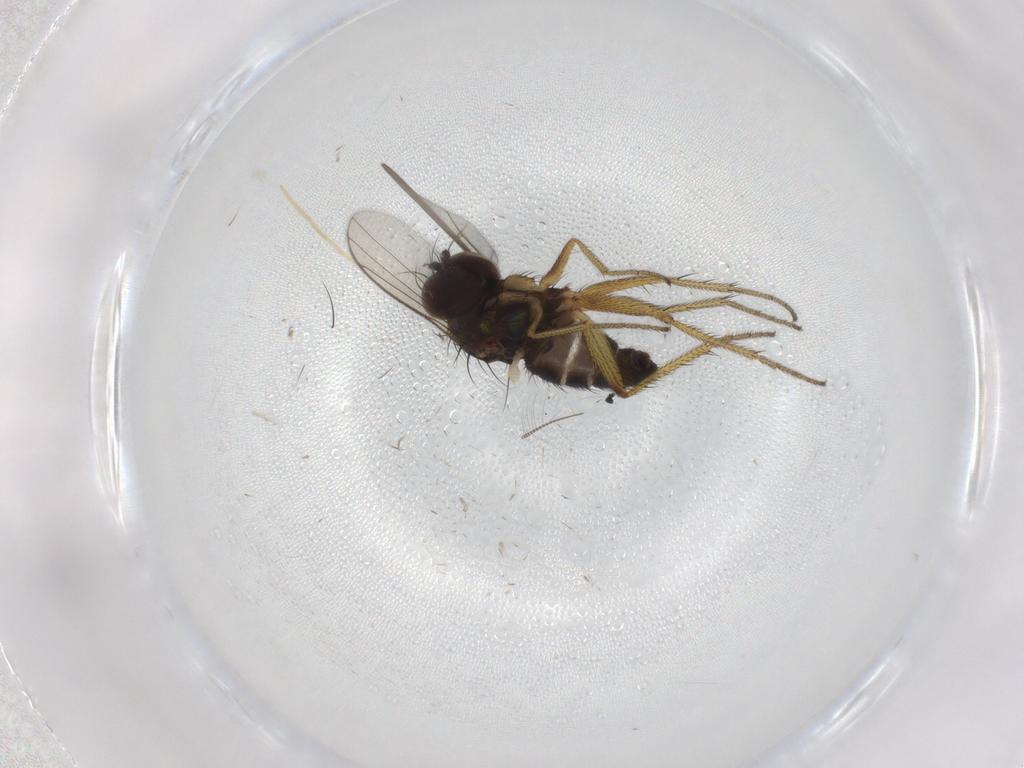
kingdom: Animalia
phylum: Arthropoda
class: Insecta
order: Diptera
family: Chironomidae
